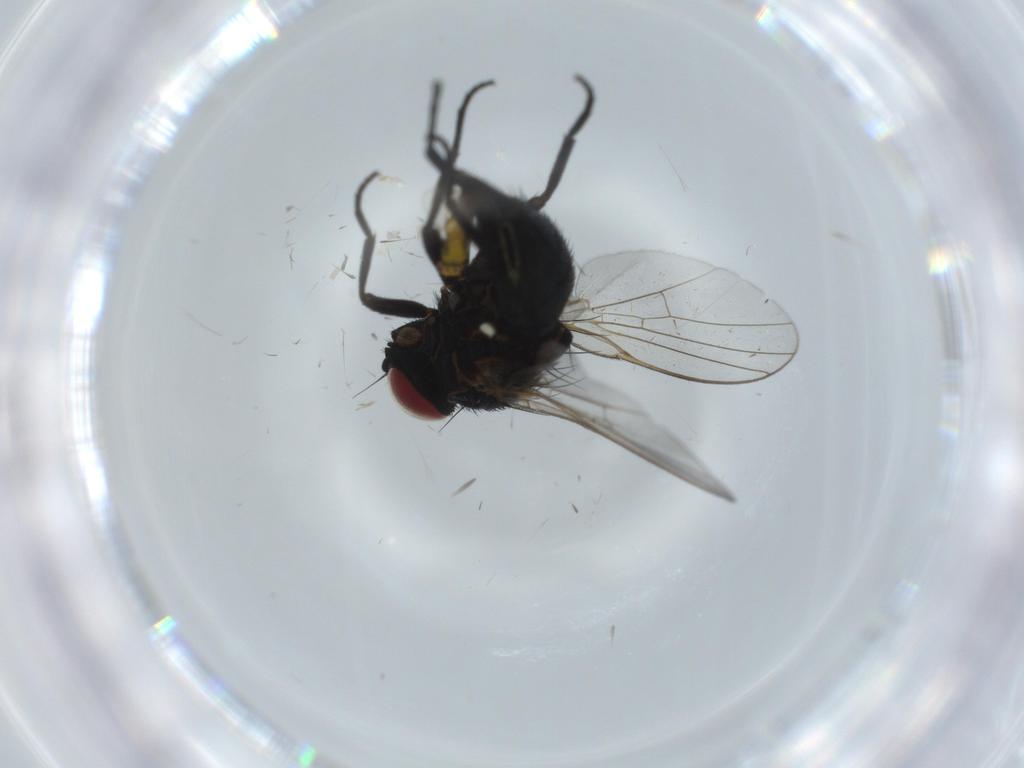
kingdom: Animalia
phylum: Arthropoda
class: Insecta
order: Diptera
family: Agromyzidae
